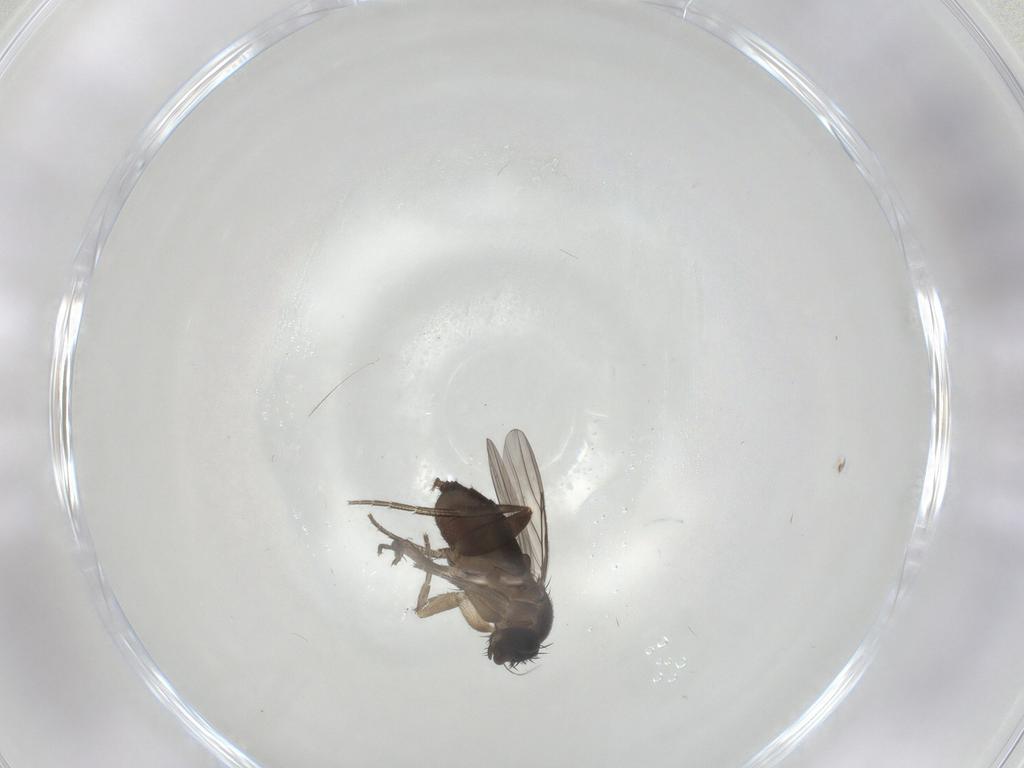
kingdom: Animalia
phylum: Arthropoda
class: Insecta
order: Diptera
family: Phoridae
